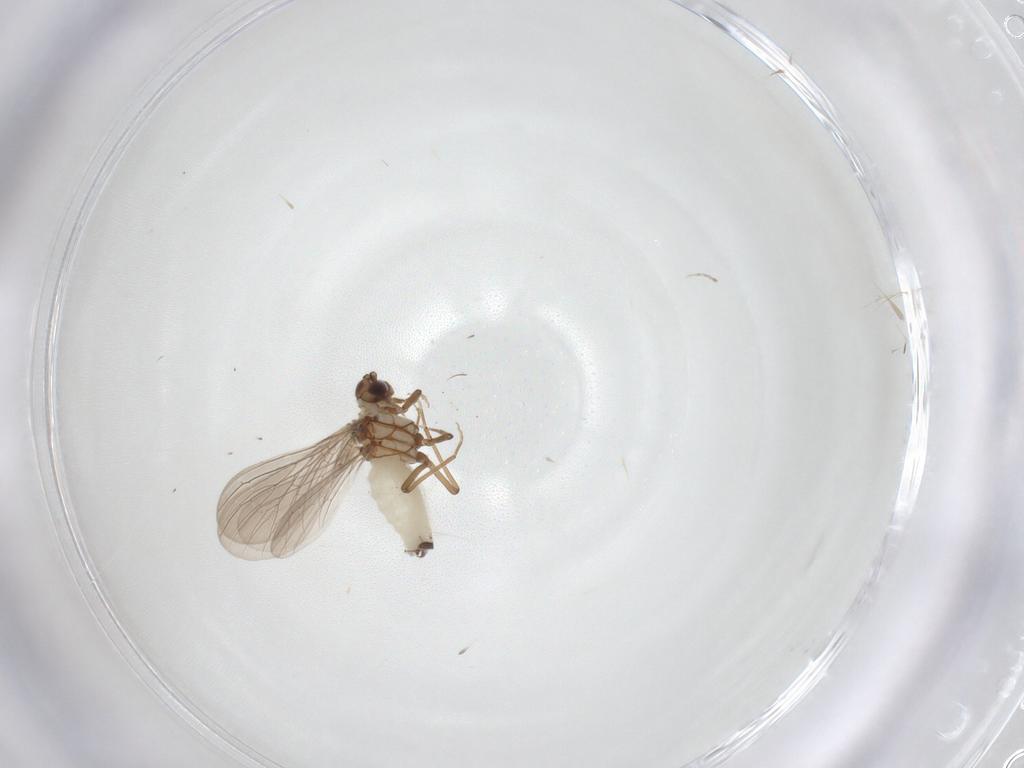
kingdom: Animalia
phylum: Arthropoda
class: Insecta
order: Neuroptera
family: Coniopterygidae
